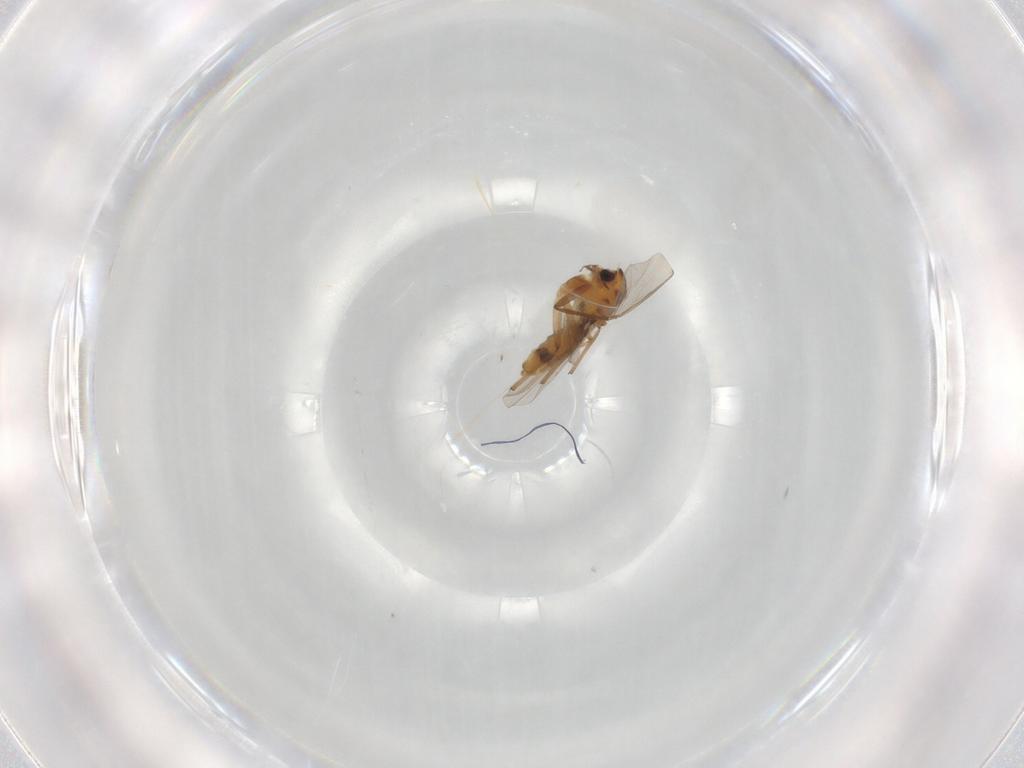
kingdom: Animalia
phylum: Arthropoda
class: Insecta
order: Diptera
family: Chironomidae
